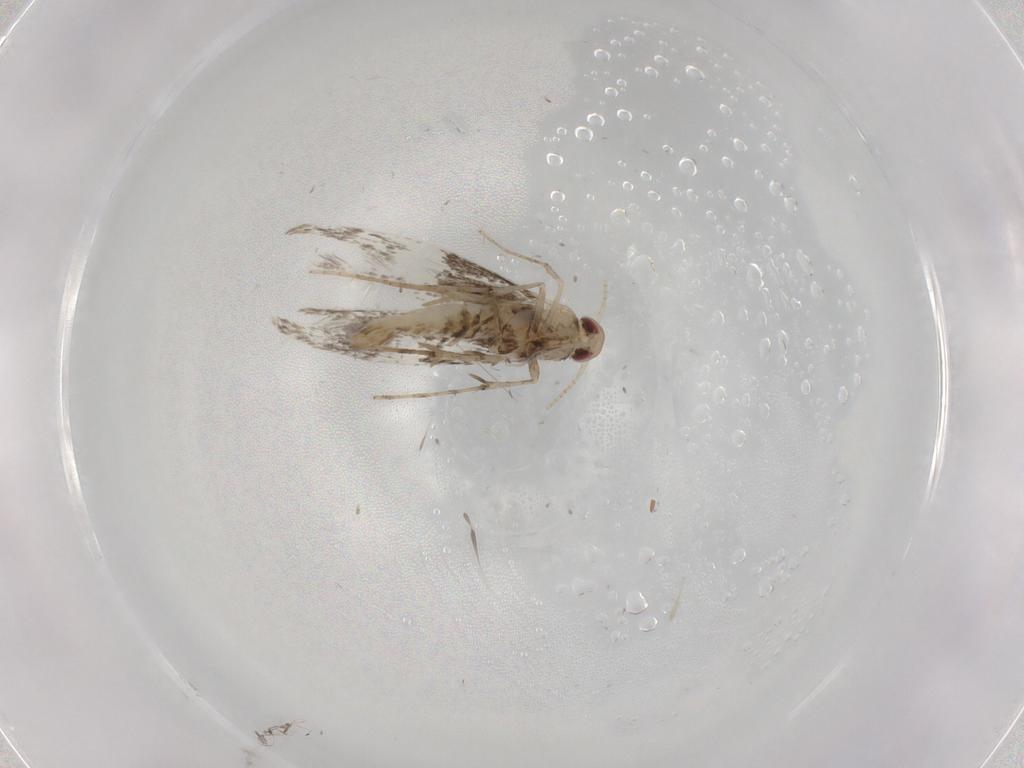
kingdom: Animalia
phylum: Arthropoda
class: Insecta
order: Lepidoptera
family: Gracillariidae
